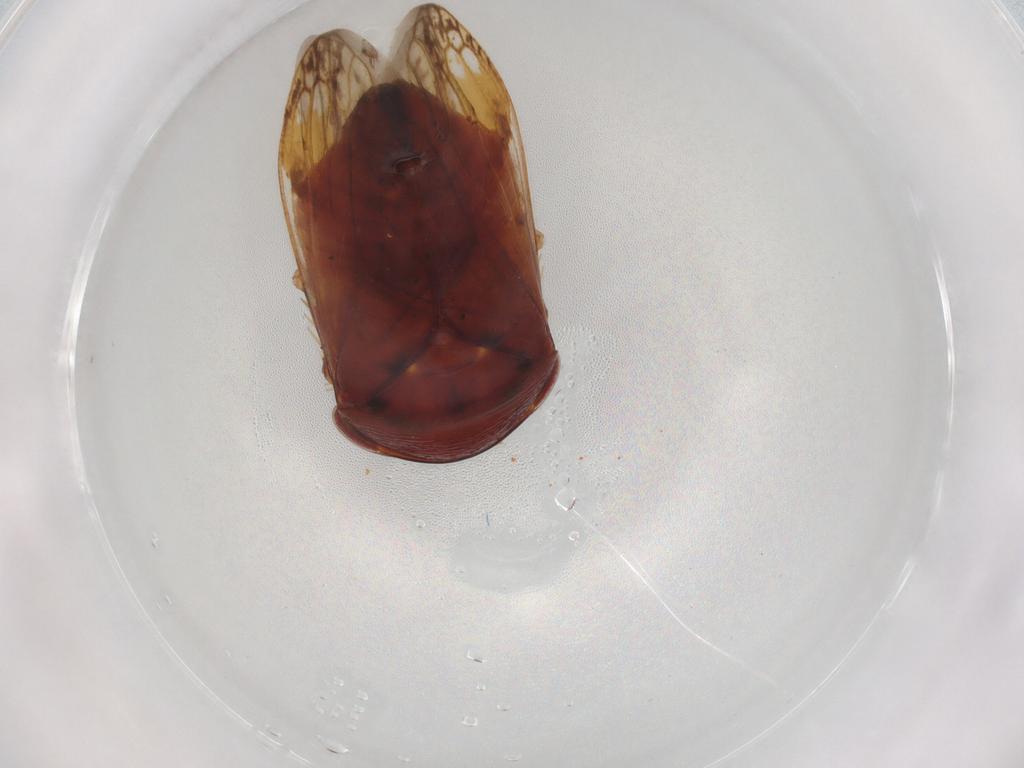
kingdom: Animalia
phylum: Arthropoda
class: Insecta
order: Hemiptera
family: Cicadellidae
